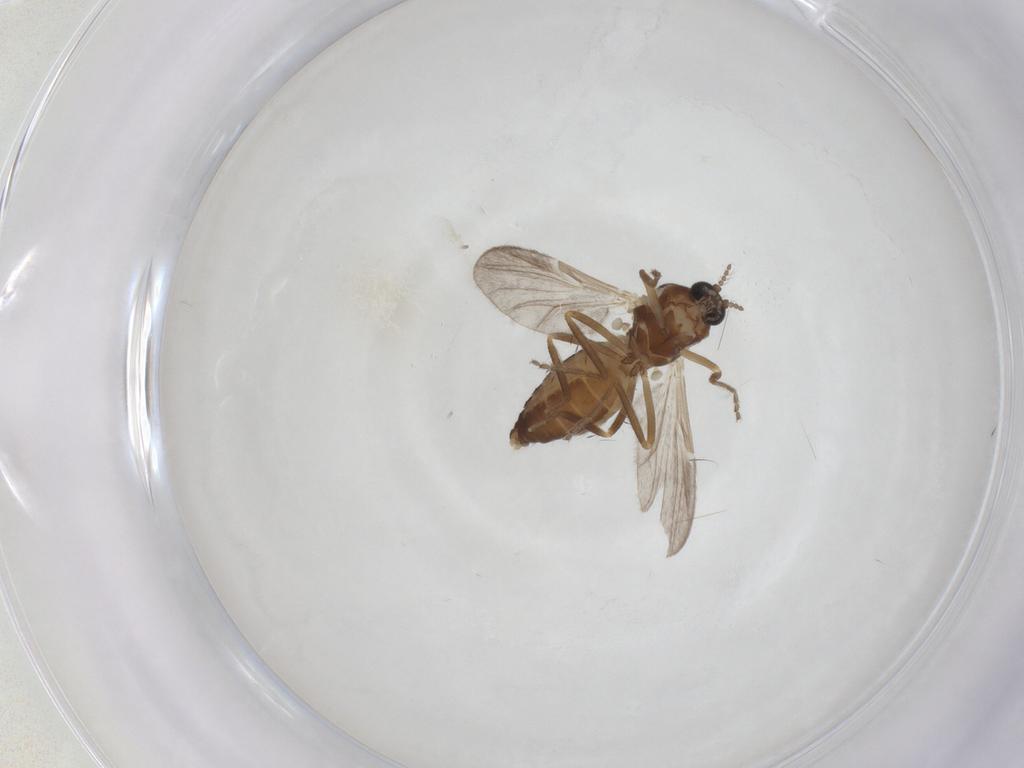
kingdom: Animalia
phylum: Arthropoda
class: Insecta
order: Diptera
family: Ceratopogonidae
